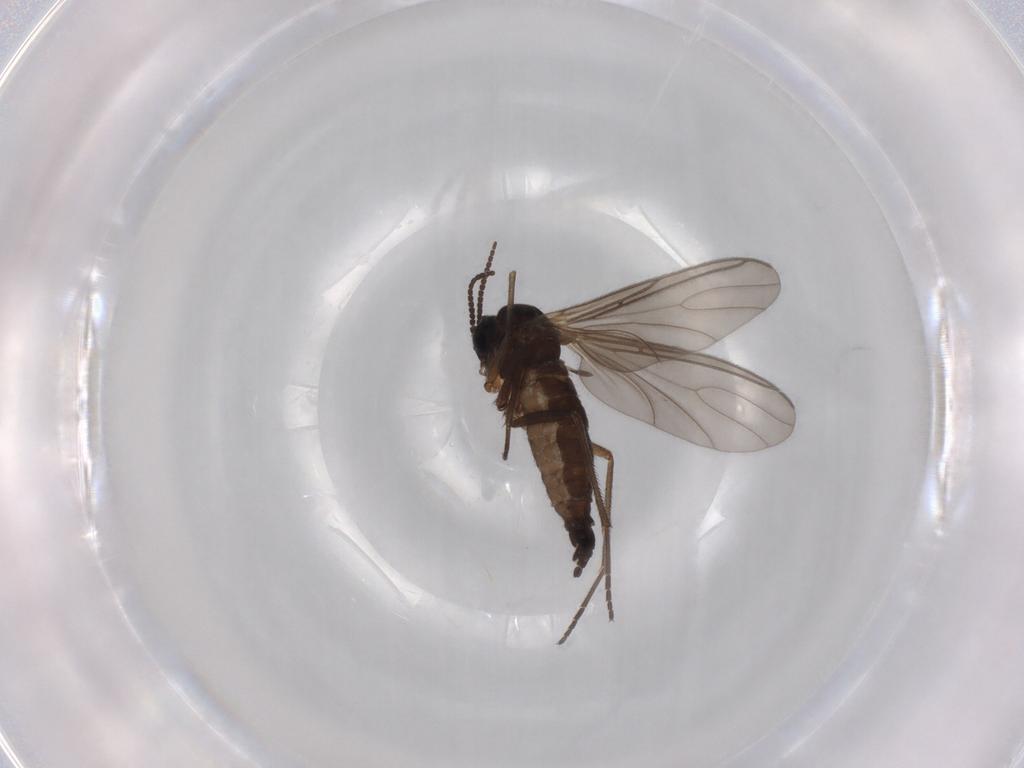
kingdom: Animalia
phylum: Arthropoda
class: Insecta
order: Diptera
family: Sciaridae
